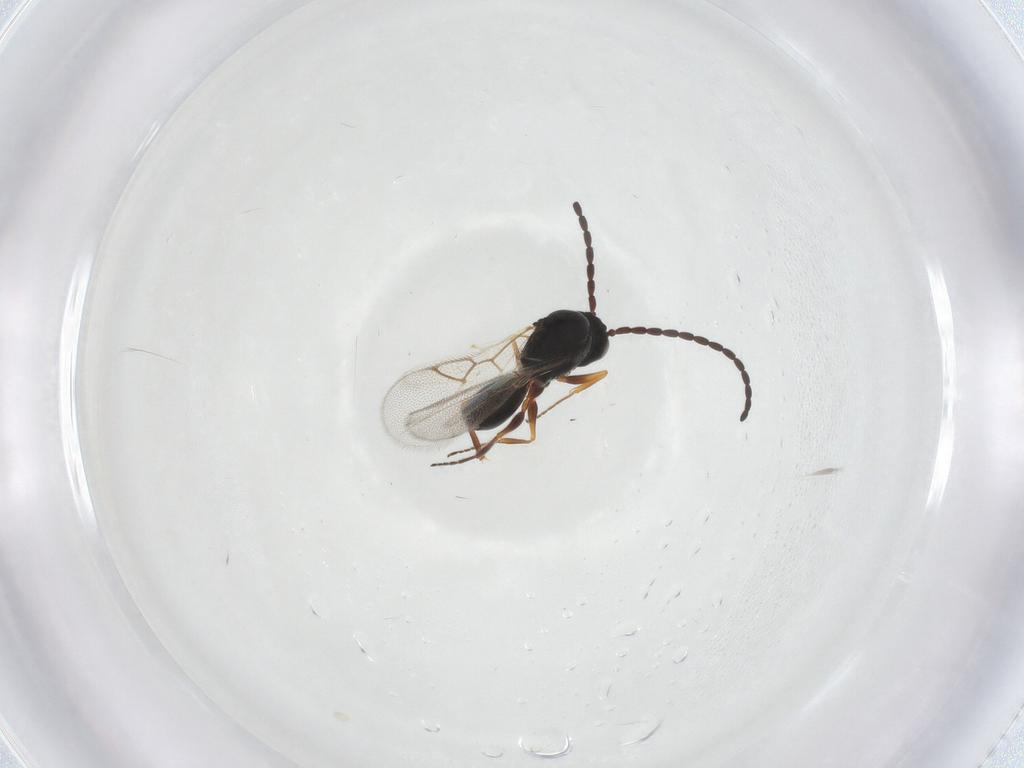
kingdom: Animalia
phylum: Arthropoda
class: Insecta
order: Hymenoptera
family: Figitidae
